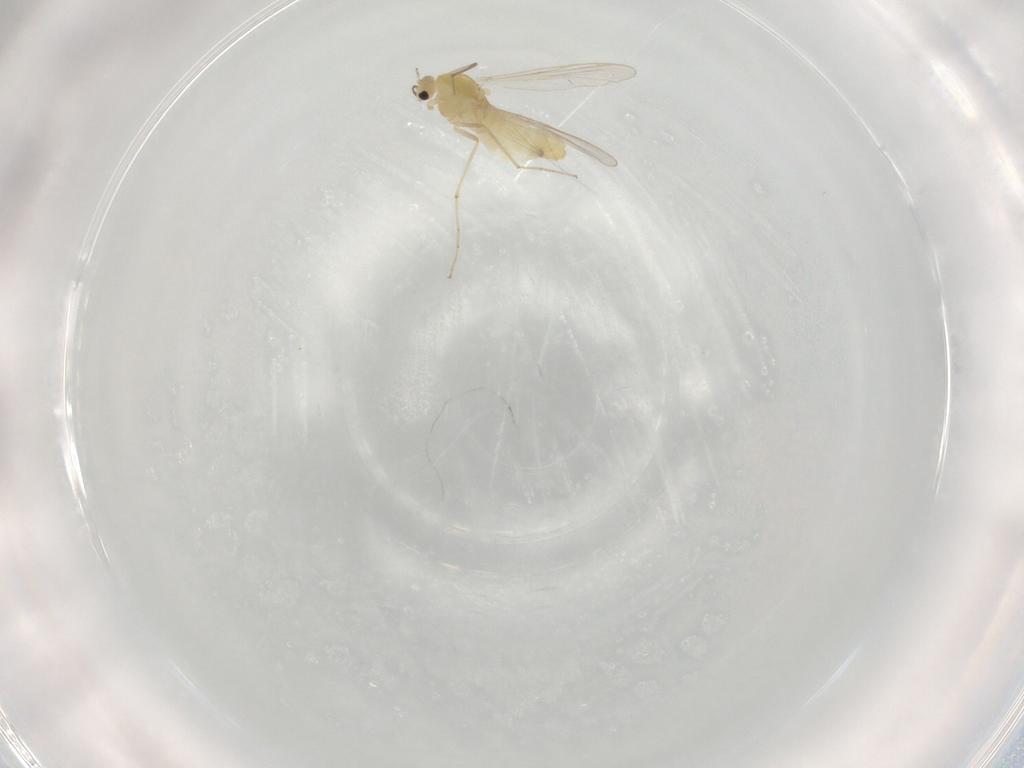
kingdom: Animalia
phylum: Arthropoda
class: Insecta
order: Diptera
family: Chironomidae
